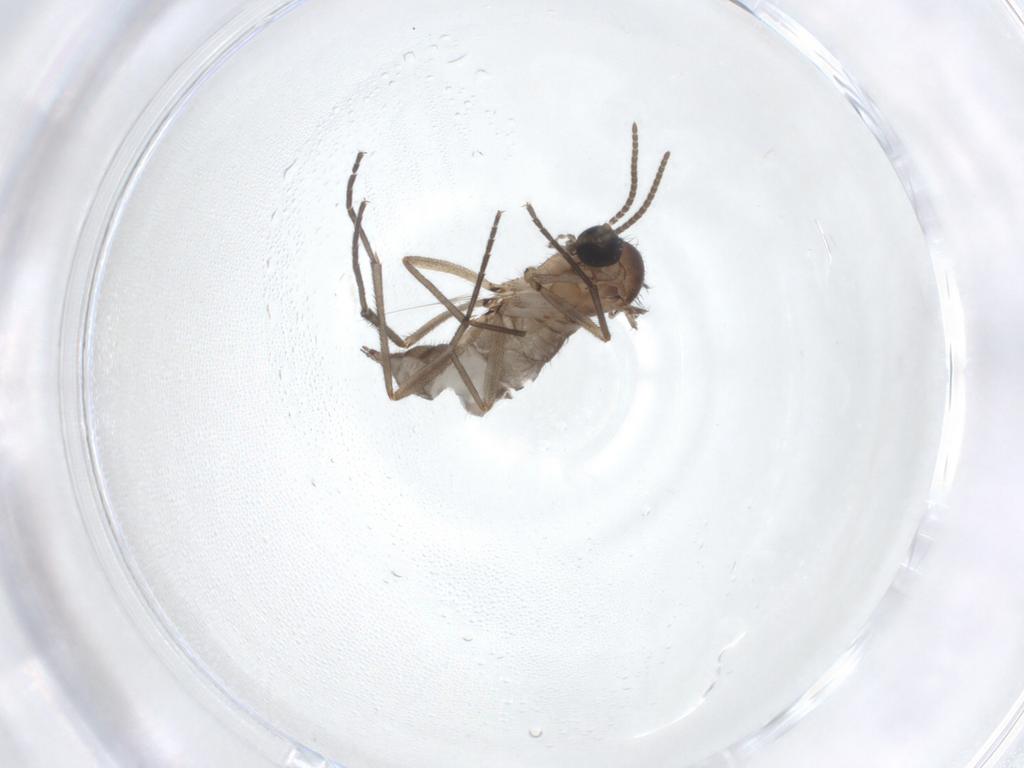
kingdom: Animalia
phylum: Arthropoda
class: Insecta
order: Diptera
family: Sciaridae
